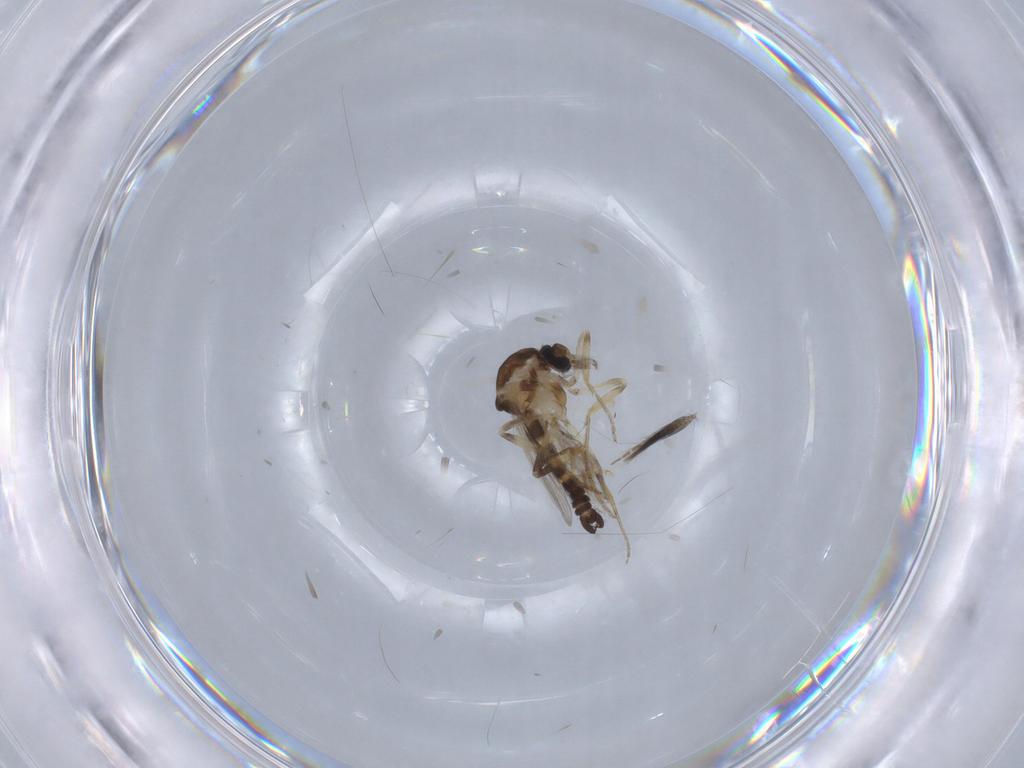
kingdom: Animalia
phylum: Arthropoda
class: Insecta
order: Diptera
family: Ceratopogonidae
